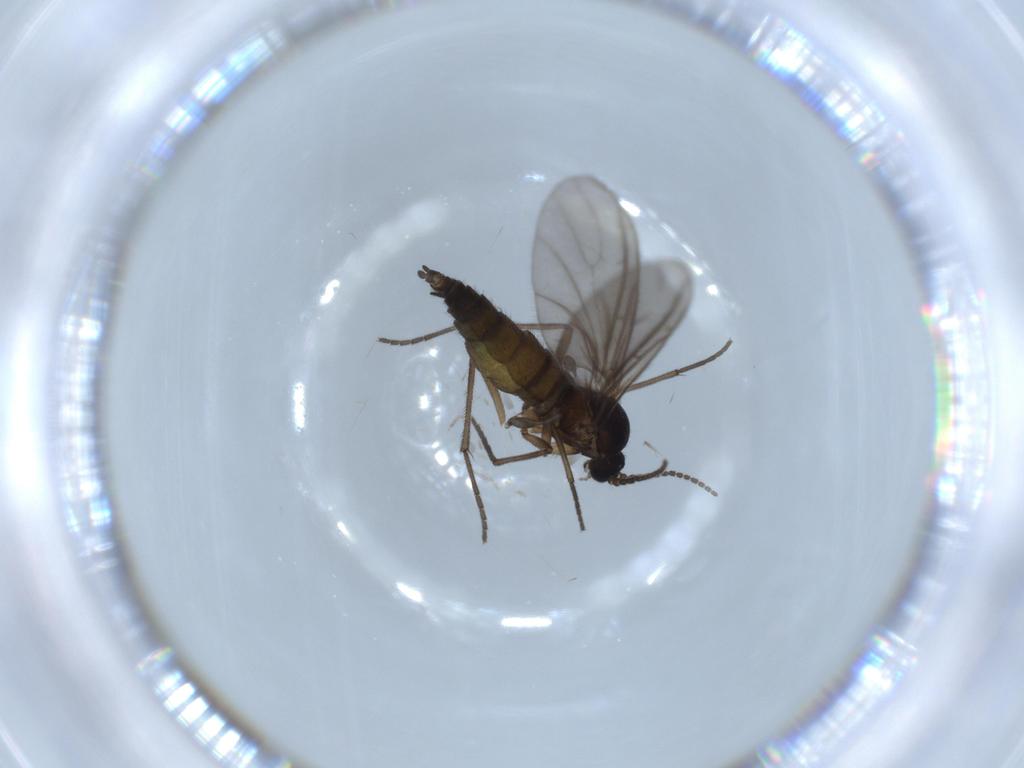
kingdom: Animalia
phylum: Arthropoda
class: Insecta
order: Diptera
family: Sciaridae
